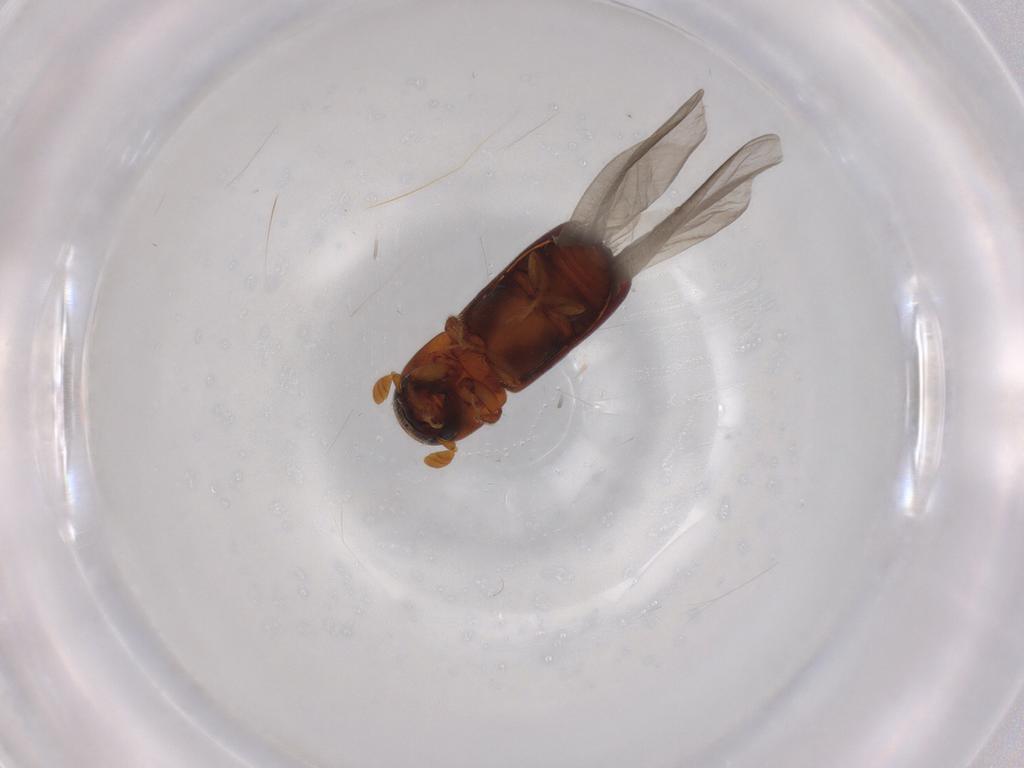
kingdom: Animalia
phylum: Arthropoda
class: Insecta
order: Coleoptera
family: Curculionidae
